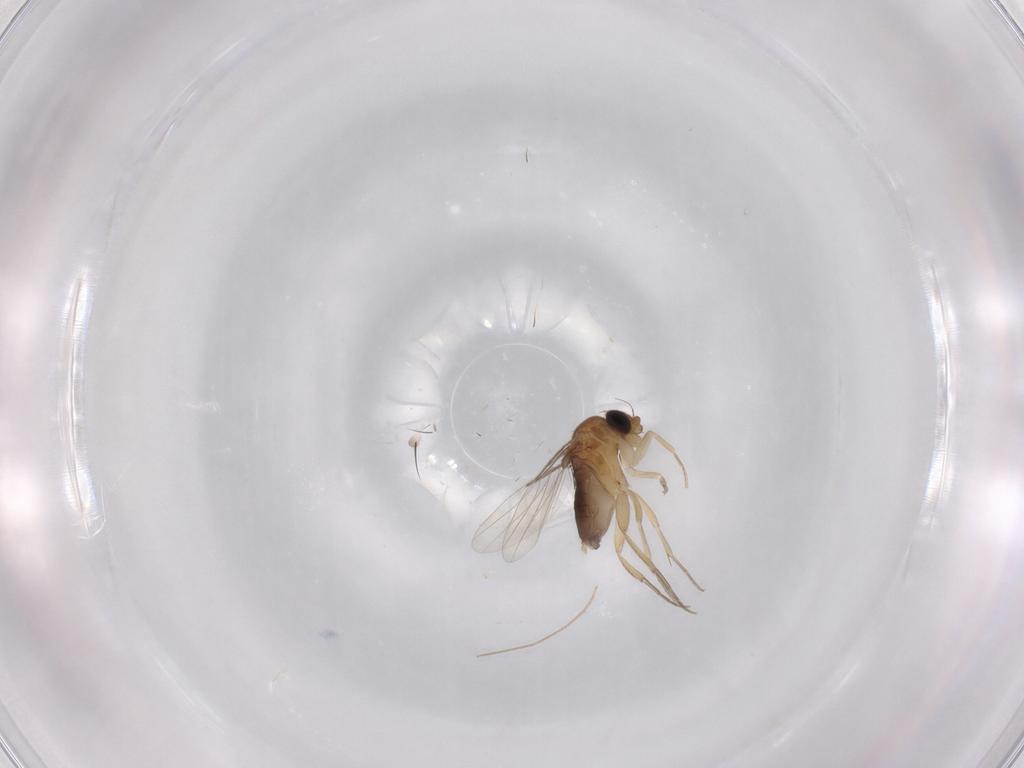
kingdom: Animalia
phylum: Arthropoda
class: Insecta
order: Diptera
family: Phoridae
